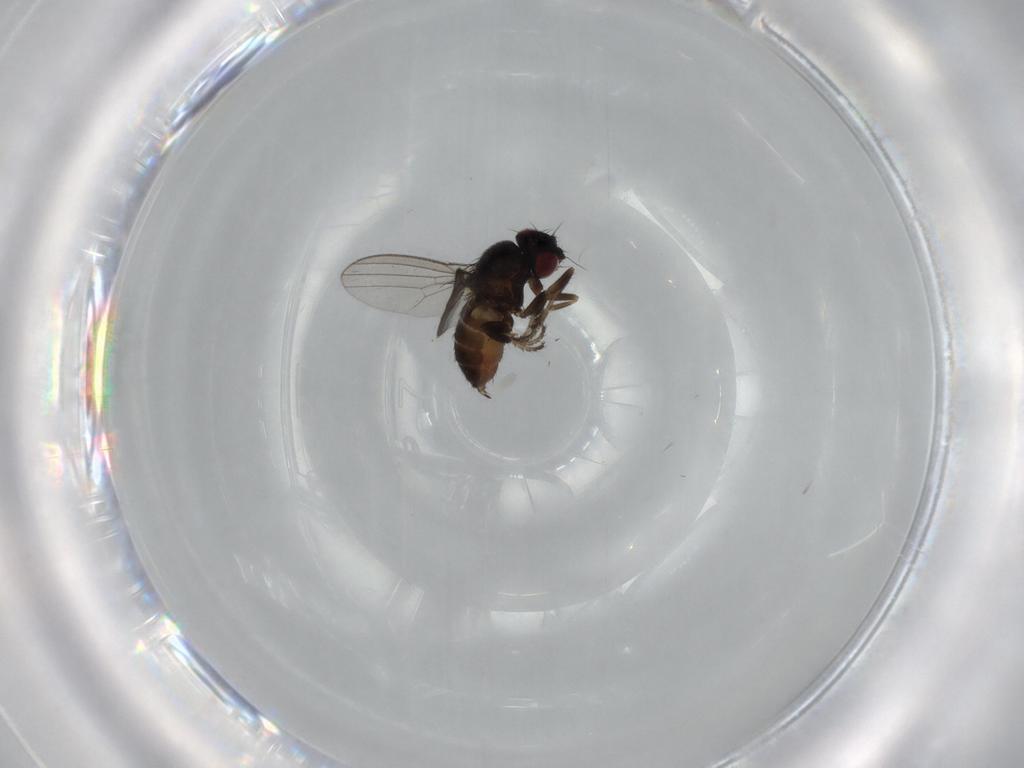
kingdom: Animalia
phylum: Arthropoda
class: Insecta
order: Diptera
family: Milichiidae
